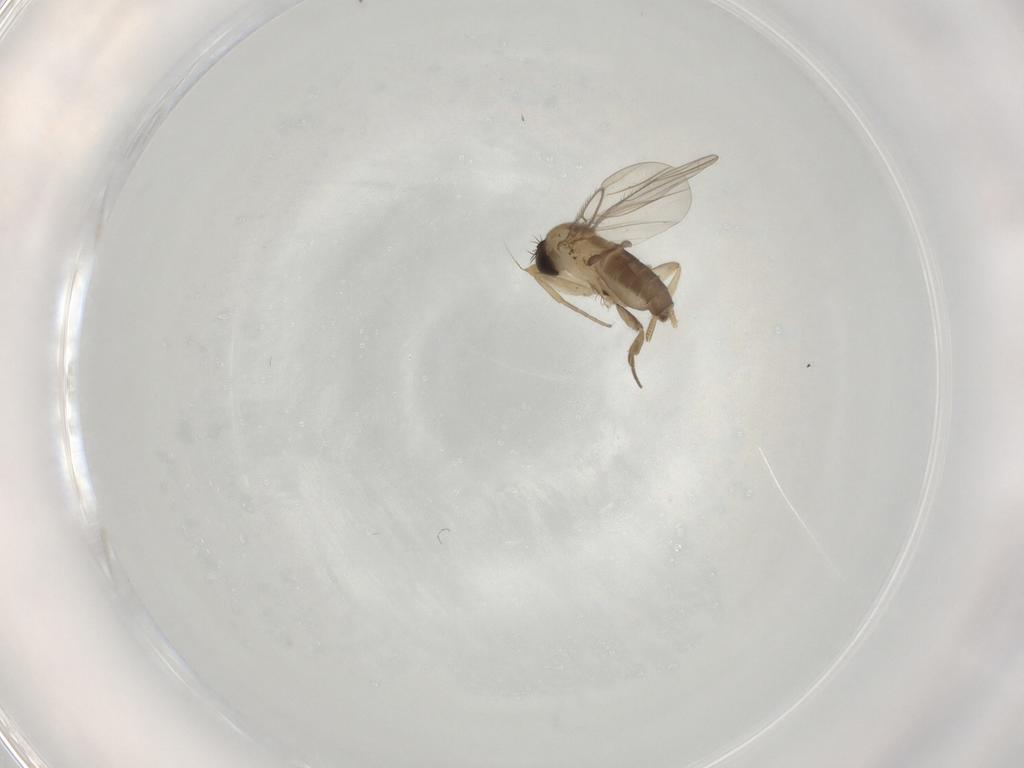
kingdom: Animalia
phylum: Arthropoda
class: Insecta
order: Diptera
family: Phoridae
